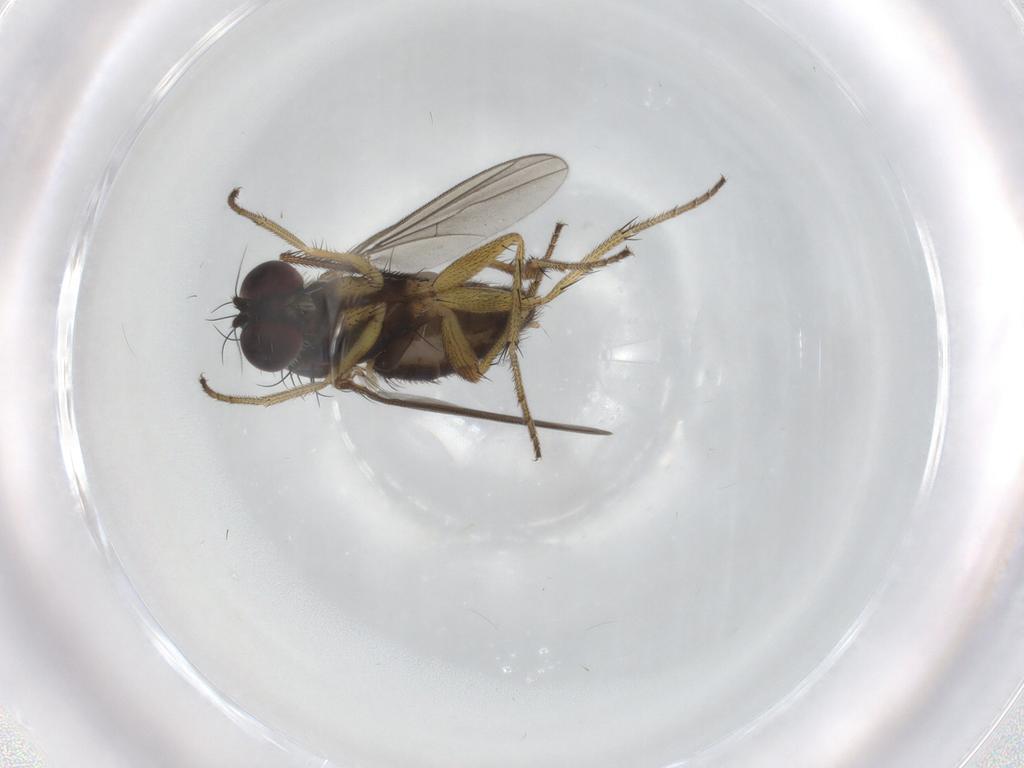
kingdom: Animalia
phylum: Arthropoda
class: Insecta
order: Diptera
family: Dolichopodidae
